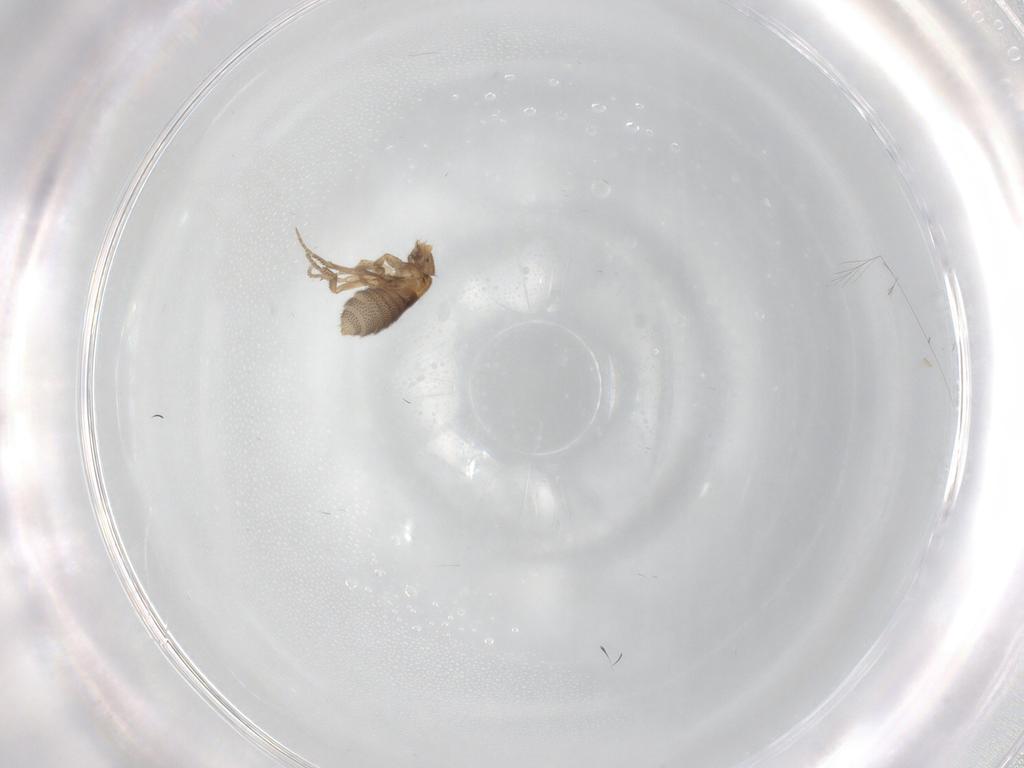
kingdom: Animalia
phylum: Arthropoda
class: Insecta
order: Diptera
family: Phoridae
